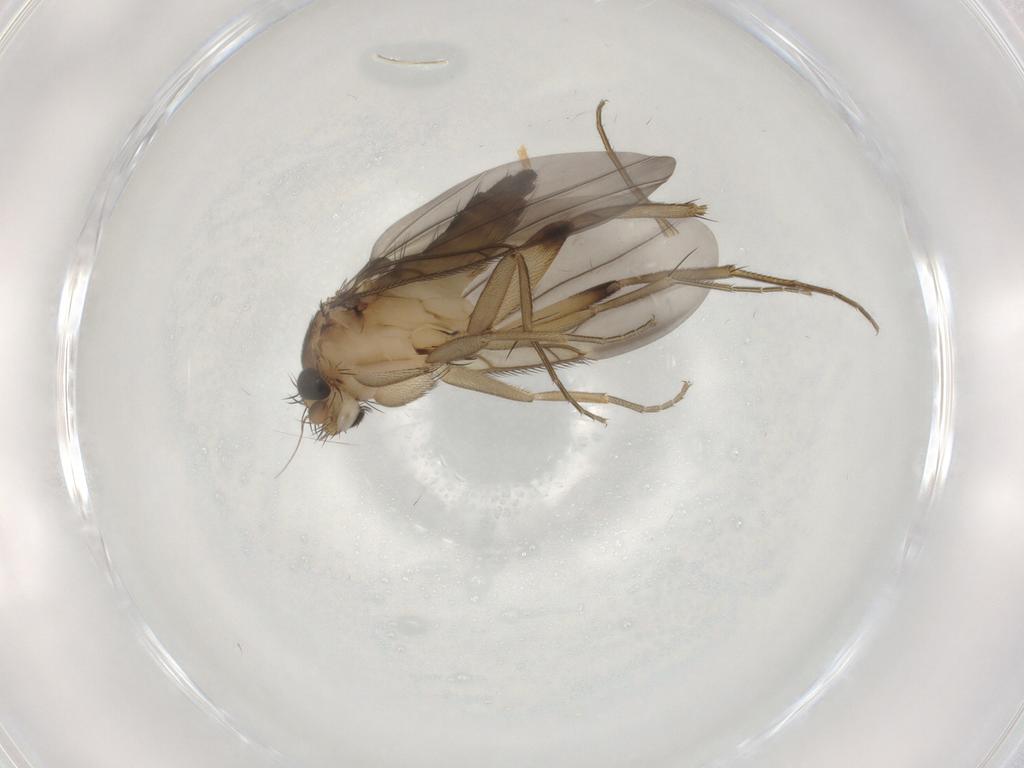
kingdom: Animalia
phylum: Arthropoda
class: Insecta
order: Diptera
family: Phoridae
